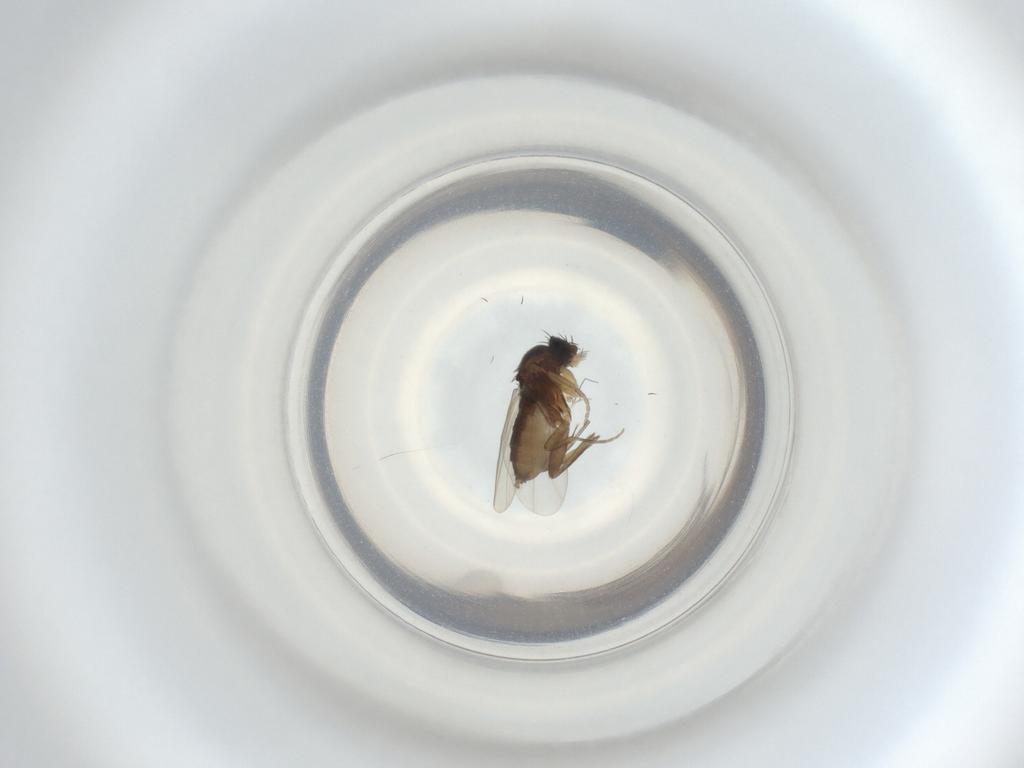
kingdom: Animalia
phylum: Arthropoda
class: Insecta
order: Diptera
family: Phoridae
